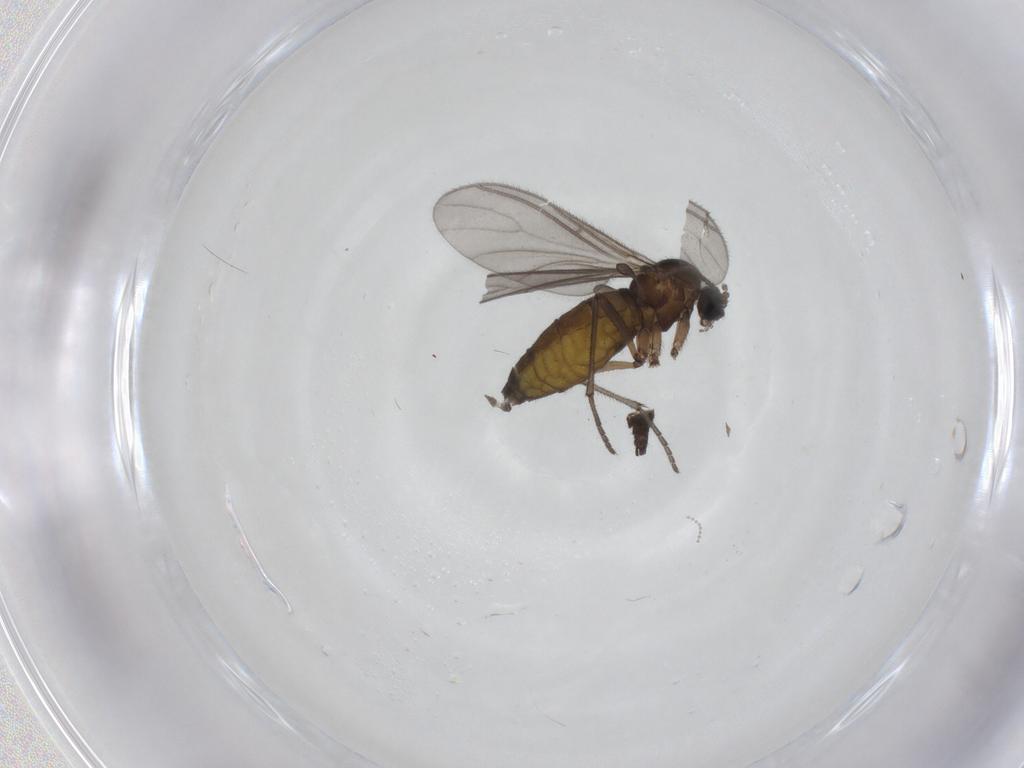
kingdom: Animalia
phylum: Arthropoda
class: Insecta
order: Diptera
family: Sciaridae
